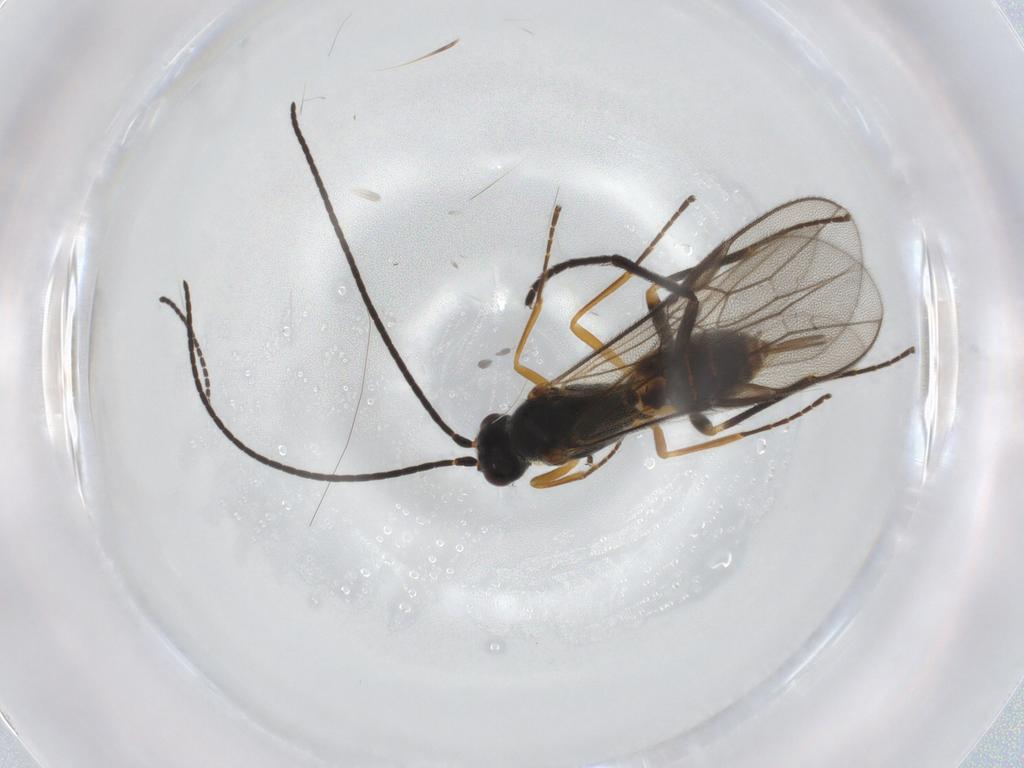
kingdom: Animalia
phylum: Arthropoda
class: Insecta
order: Hymenoptera
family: Braconidae
